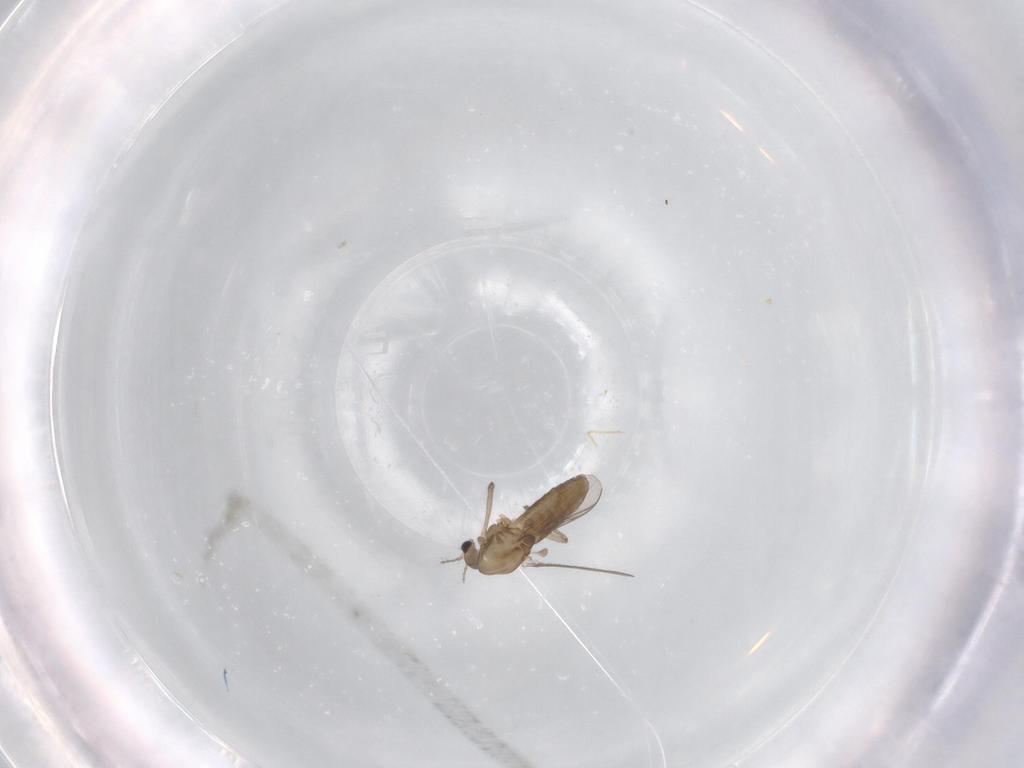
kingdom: Animalia
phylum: Arthropoda
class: Insecta
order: Diptera
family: Chironomidae
